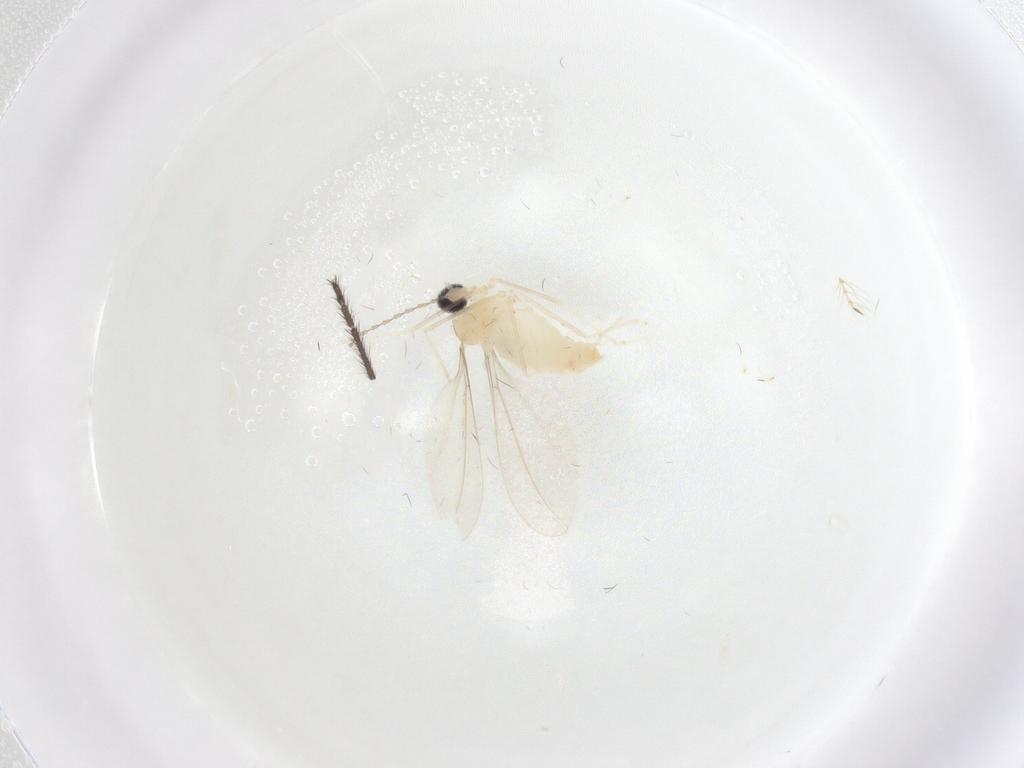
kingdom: Animalia
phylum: Arthropoda
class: Insecta
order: Diptera
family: Chironomidae
